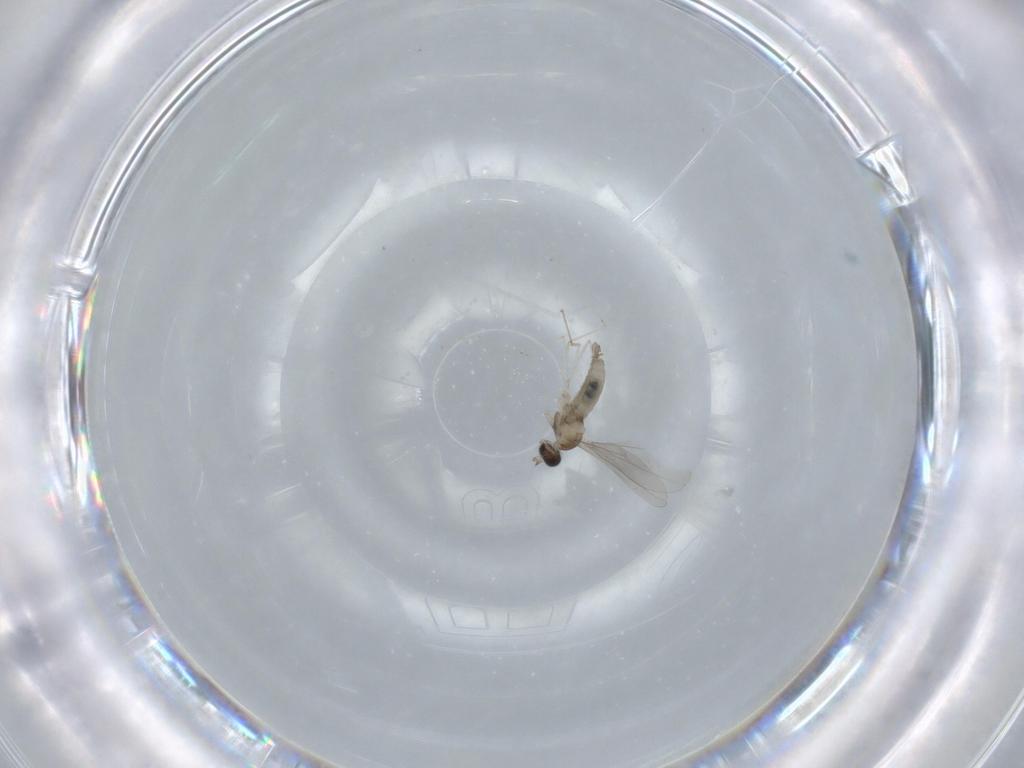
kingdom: Animalia
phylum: Arthropoda
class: Insecta
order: Diptera
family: Cecidomyiidae
